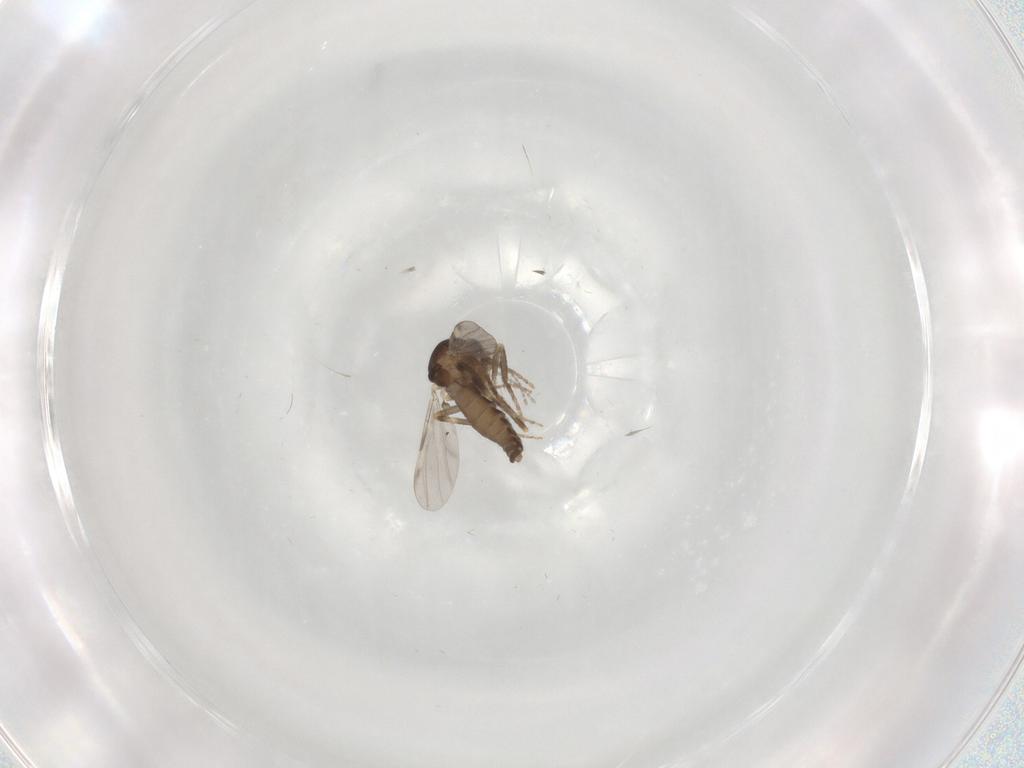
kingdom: Animalia
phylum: Arthropoda
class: Insecta
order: Diptera
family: Ceratopogonidae
